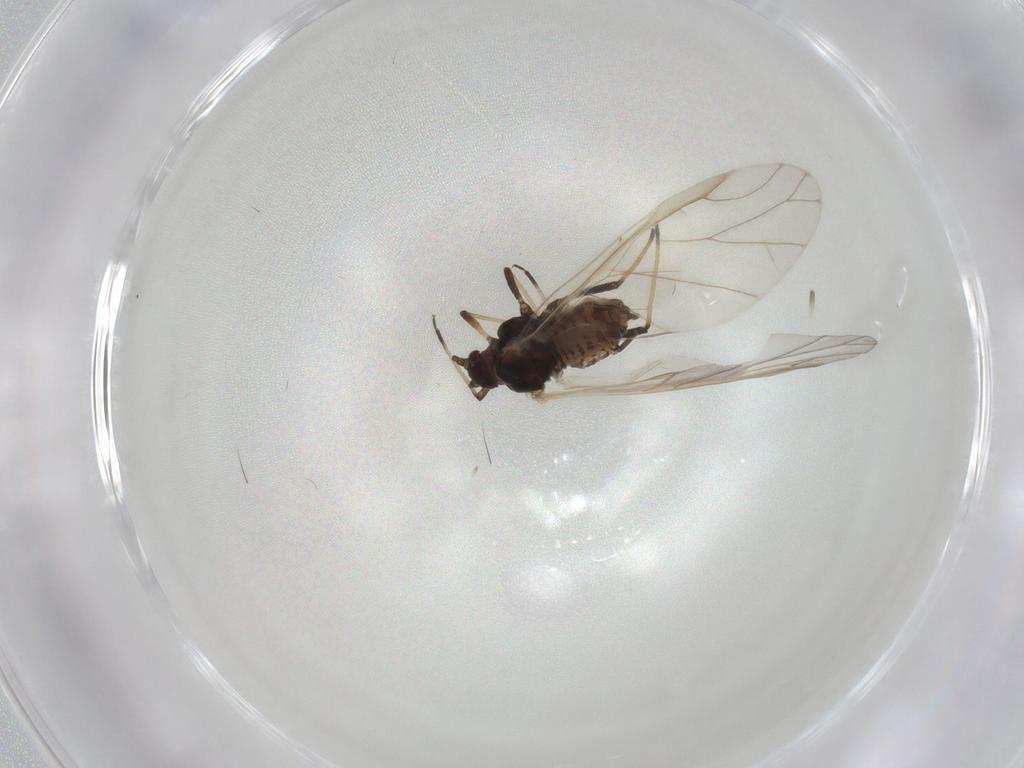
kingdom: Animalia
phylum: Arthropoda
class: Insecta
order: Hemiptera
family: Aphididae
